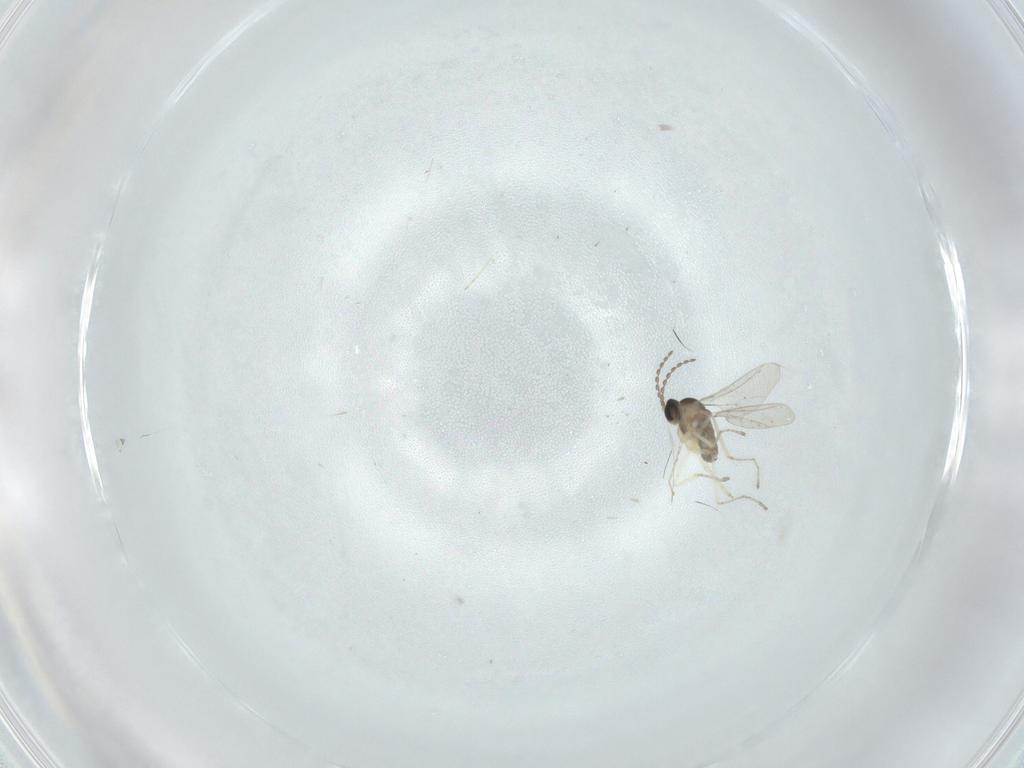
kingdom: Animalia
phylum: Arthropoda
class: Insecta
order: Diptera
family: Cecidomyiidae
